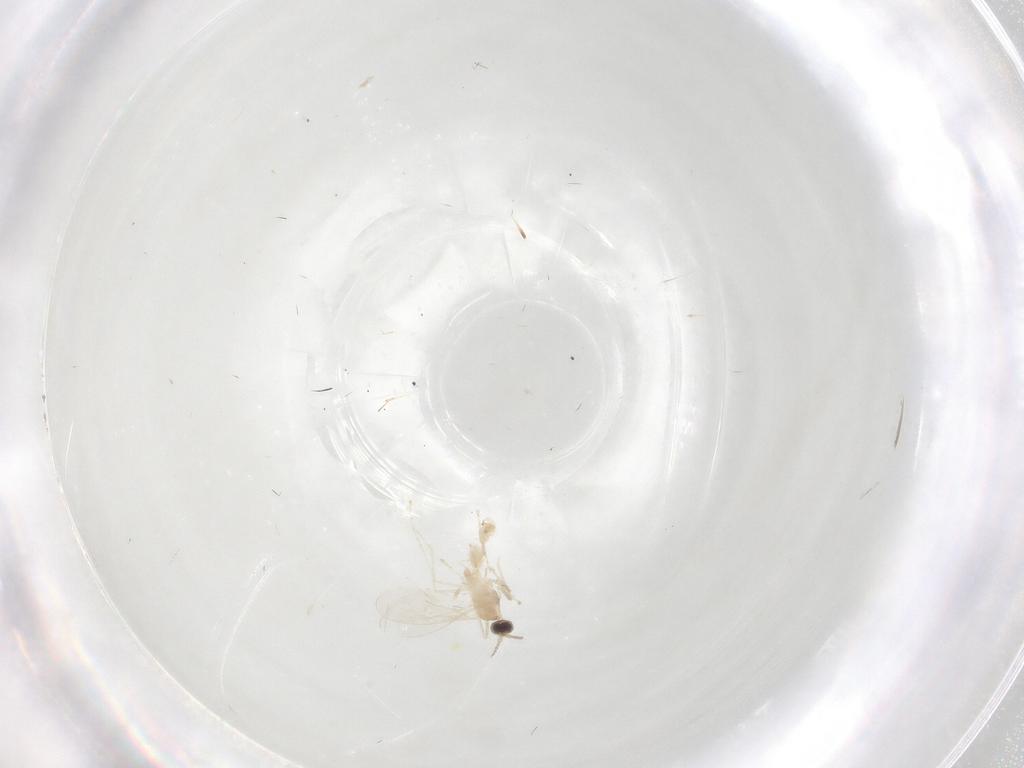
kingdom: Animalia
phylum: Arthropoda
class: Insecta
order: Diptera
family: Cecidomyiidae
